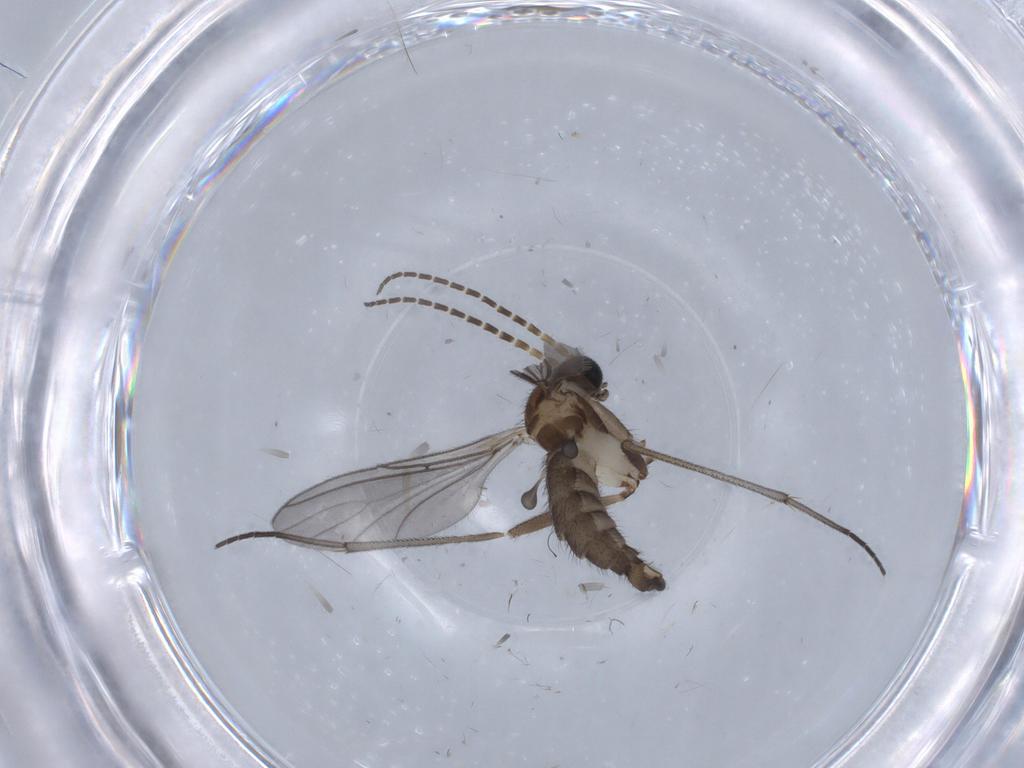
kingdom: Animalia
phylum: Arthropoda
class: Insecta
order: Diptera
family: Sciaridae
